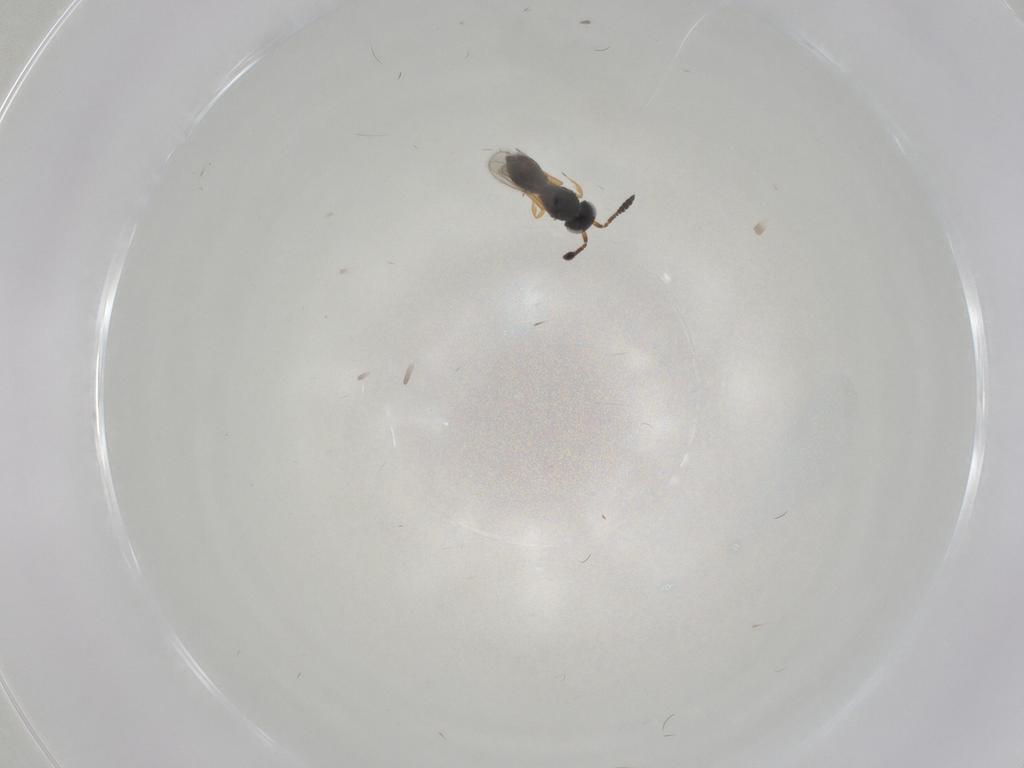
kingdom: Animalia
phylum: Arthropoda
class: Insecta
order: Hymenoptera
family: Scelionidae
